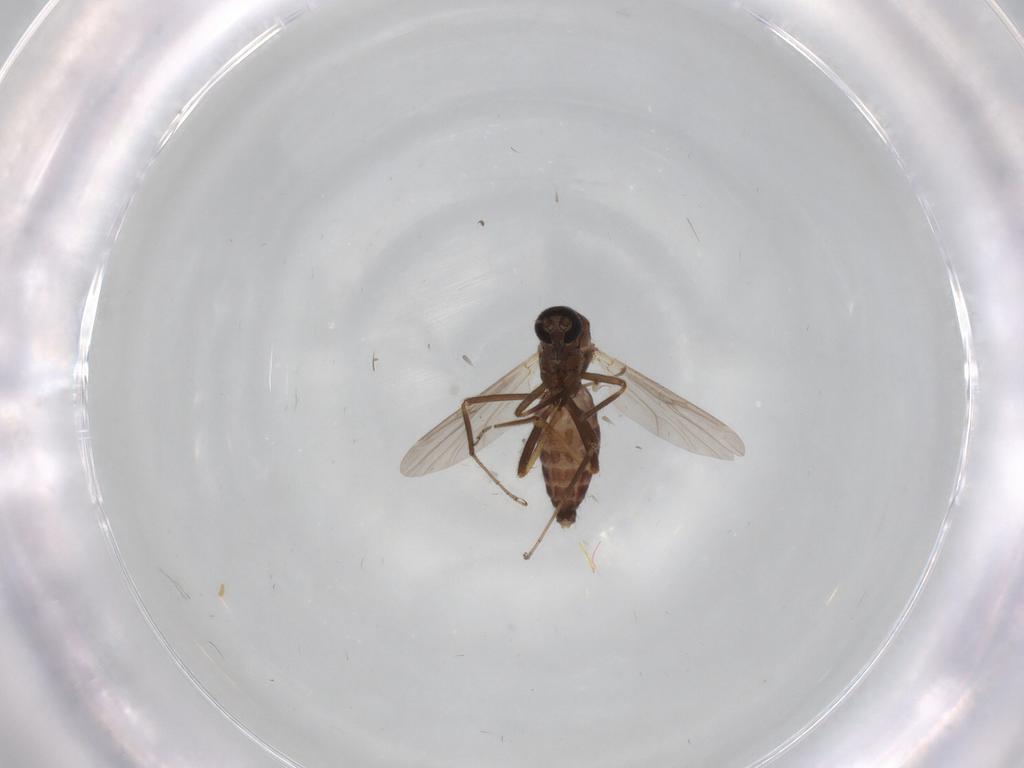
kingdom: Animalia
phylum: Arthropoda
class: Insecta
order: Diptera
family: Ceratopogonidae
